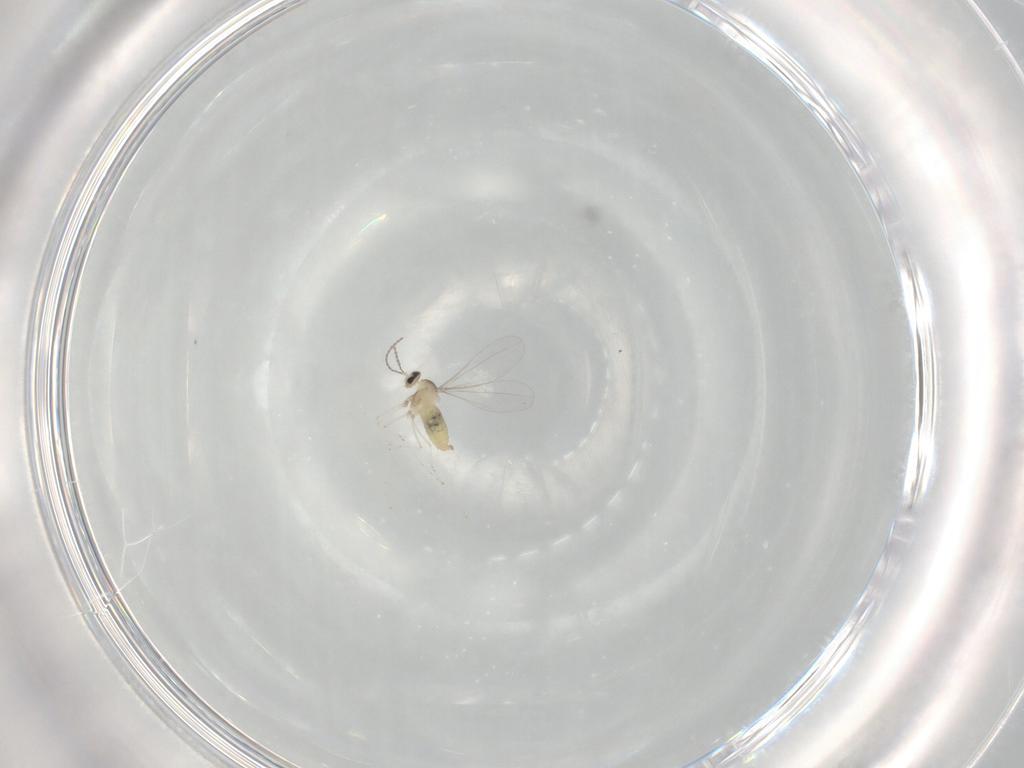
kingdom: Animalia
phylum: Arthropoda
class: Insecta
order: Diptera
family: Cecidomyiidae
